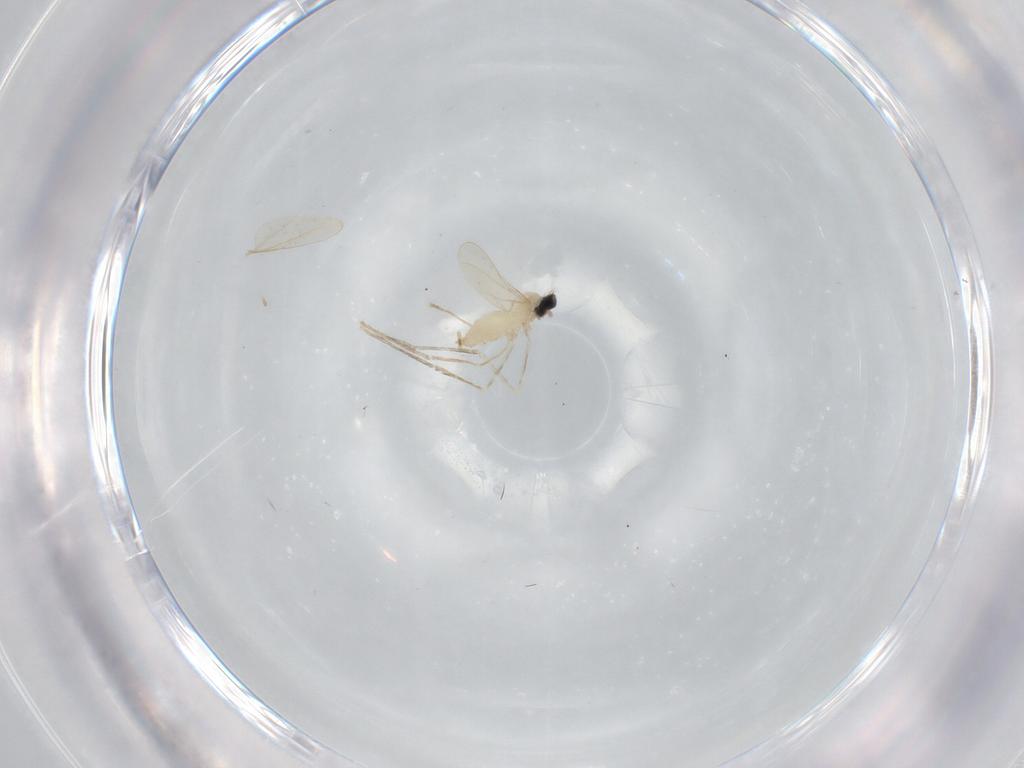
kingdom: Animalia
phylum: Arthropoda
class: Insecta
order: Diptera
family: Cecidomyiidae
